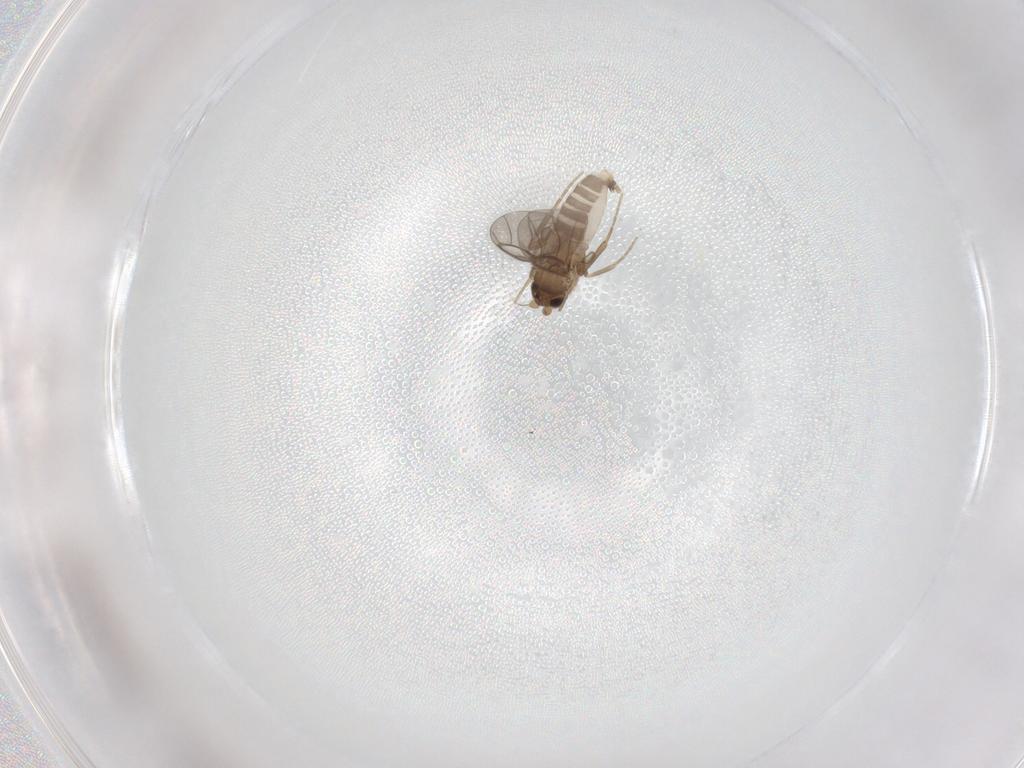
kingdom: Animalia
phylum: Arthropoda
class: Insecta
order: Diptera
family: Sciaridae
